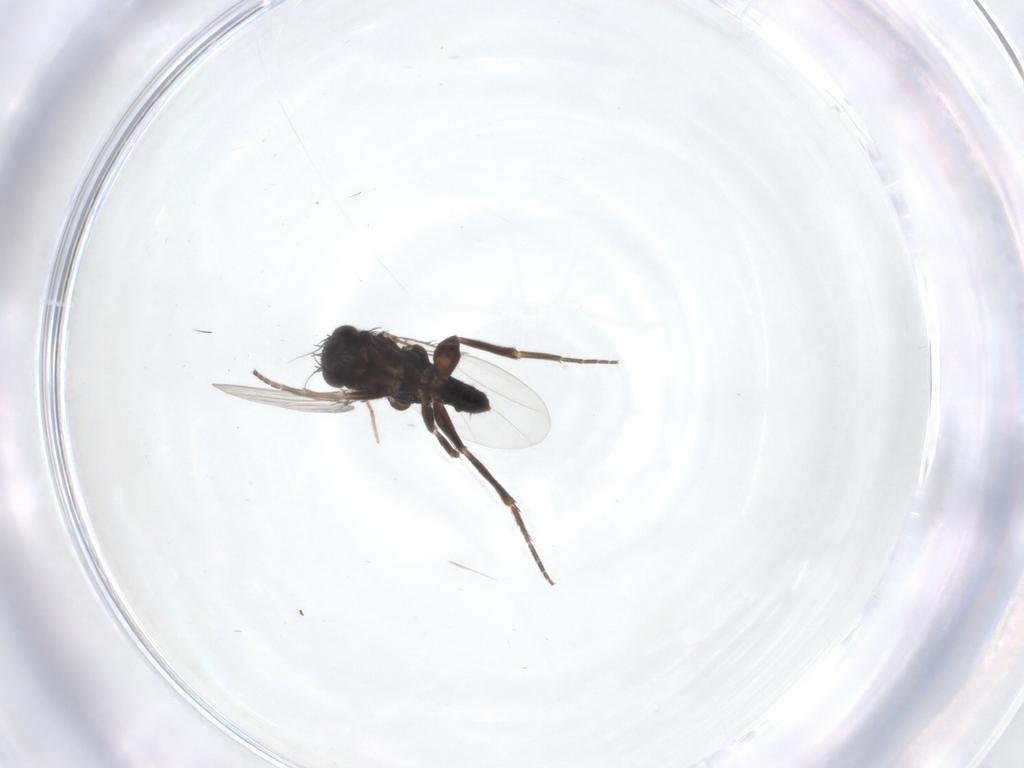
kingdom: Animalia
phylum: Arthropoda
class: Insecta
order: Diptera
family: Phoridae
